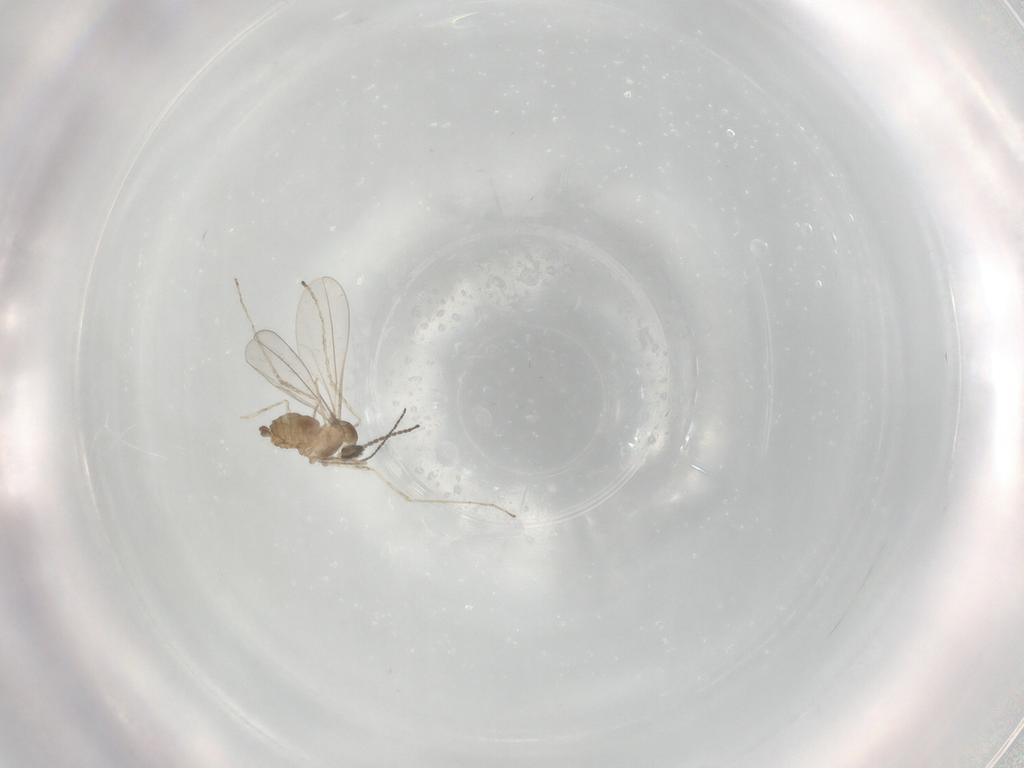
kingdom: Animalia
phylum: Arthropoda
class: Insecta
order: Diptera
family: Cecidomyiidae
